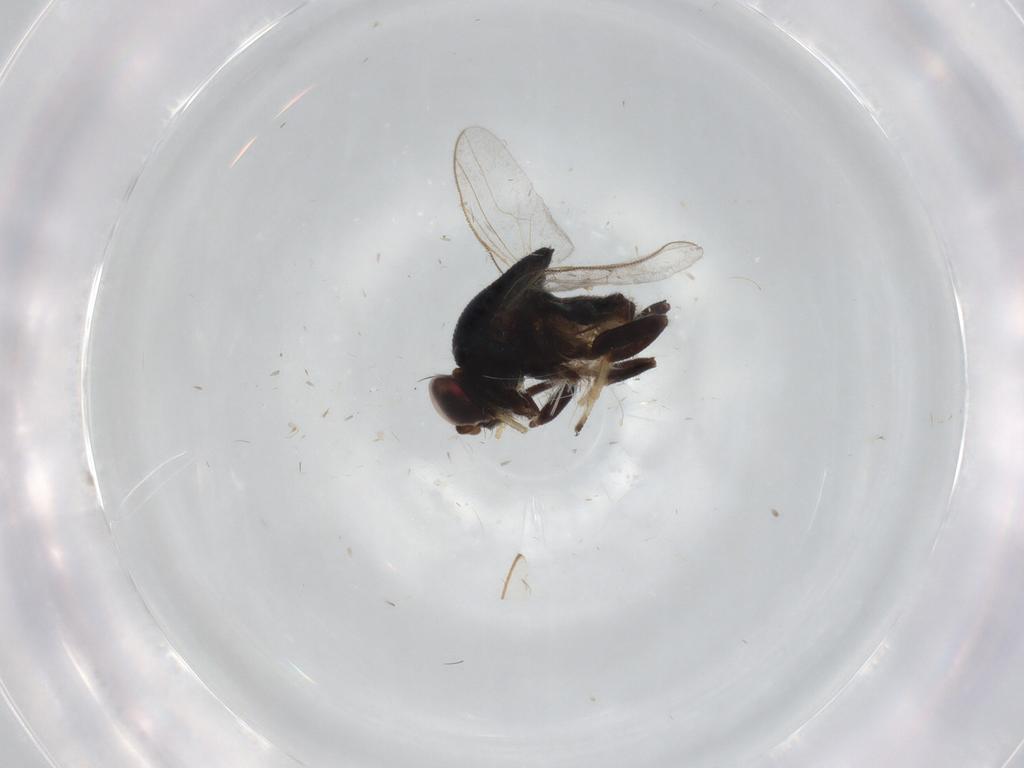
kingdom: Animalia
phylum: Arthropoda
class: Insecta
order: Diptera
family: Chloropidae
